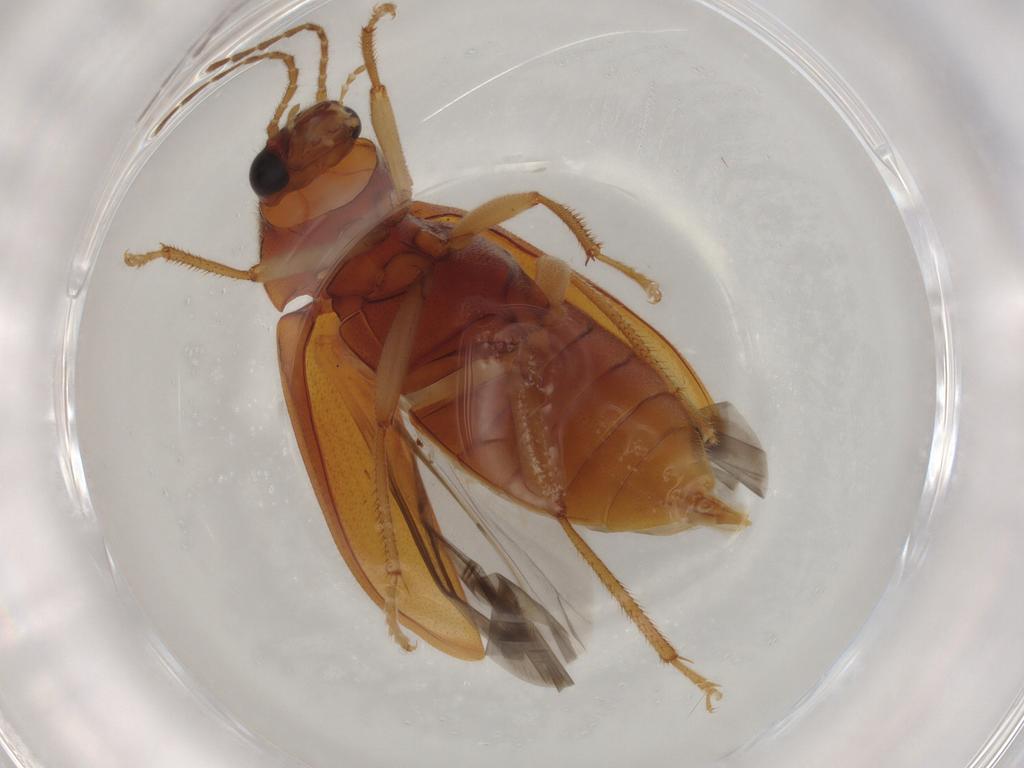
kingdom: Animalia
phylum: Arthropoda
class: Insecta
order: Coleoptera
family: Ptilodactylidae
